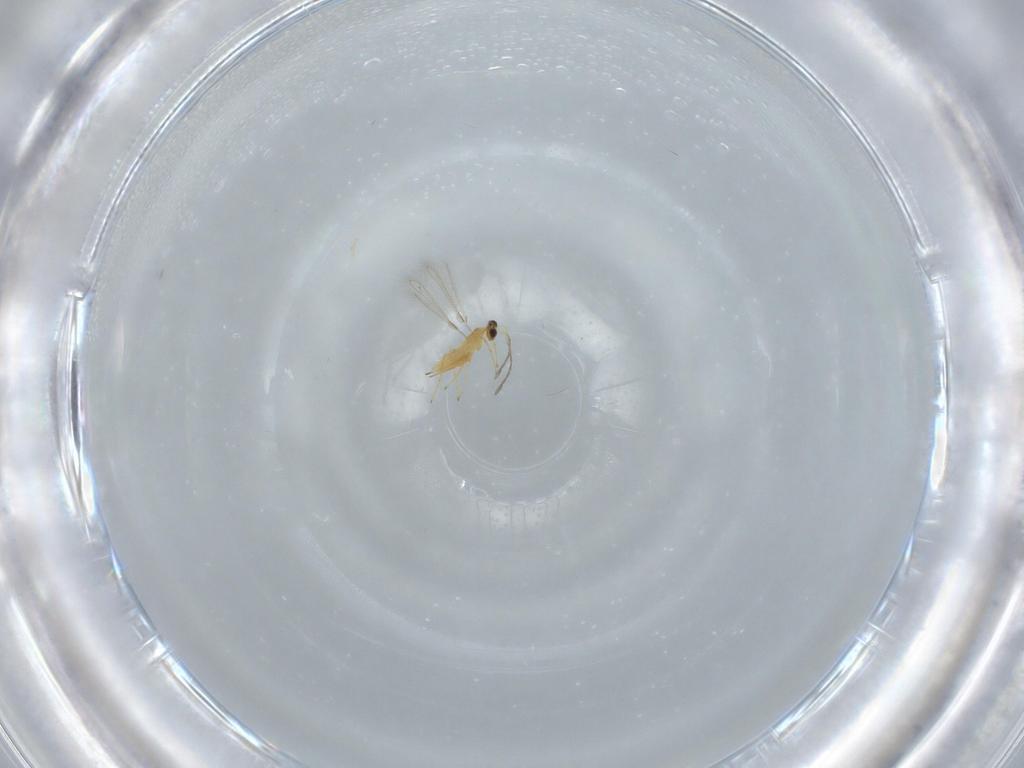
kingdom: Animalia
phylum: Arthropoda
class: Insecta
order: Hymenoptera
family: Mymaridae
